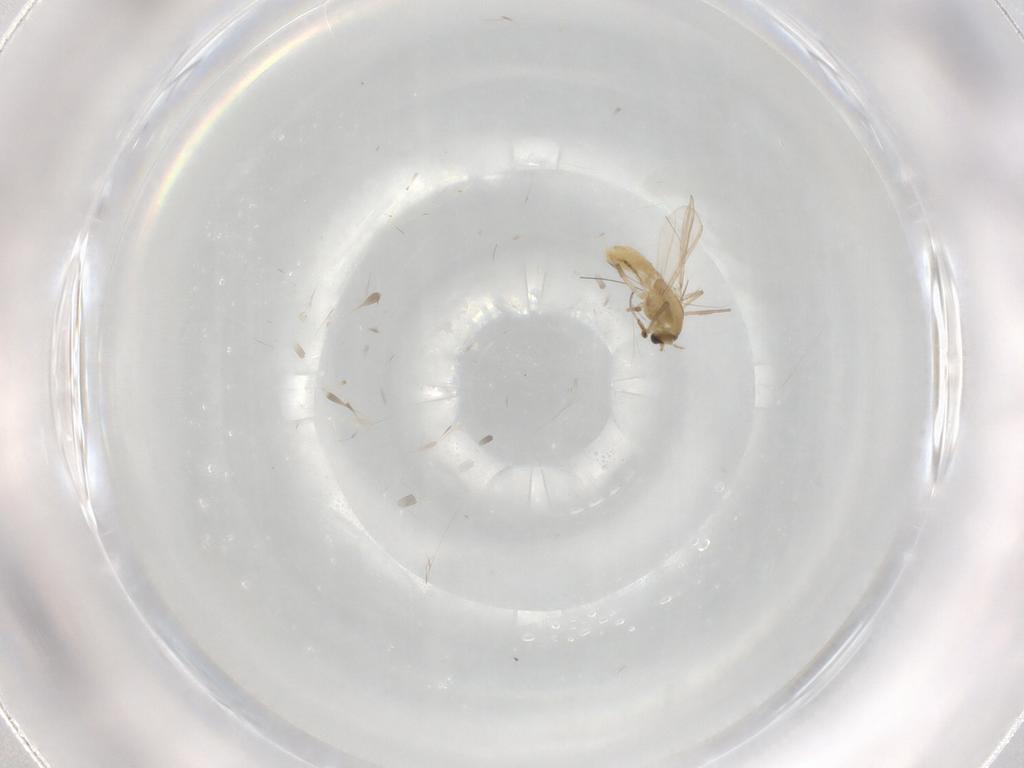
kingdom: Animalia
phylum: Arthropoda
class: Insecta
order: Diptera
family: Chironomidae
